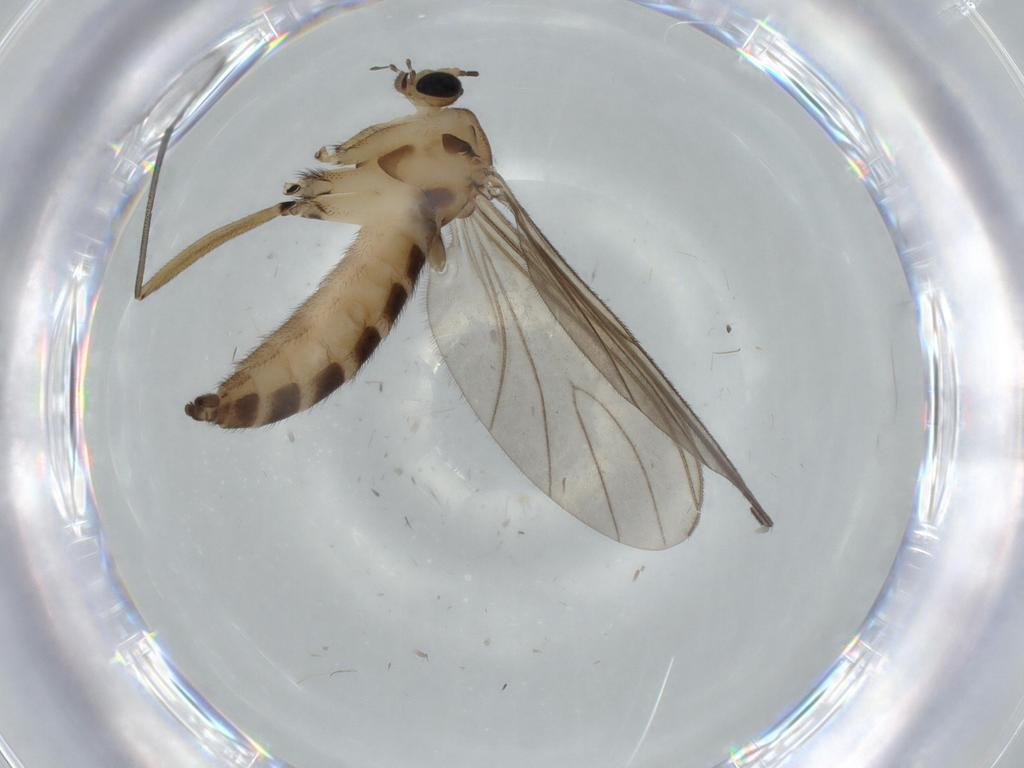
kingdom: Animalia
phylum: Arthropoda
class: Insecta
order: Diptera
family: Sciaridae
